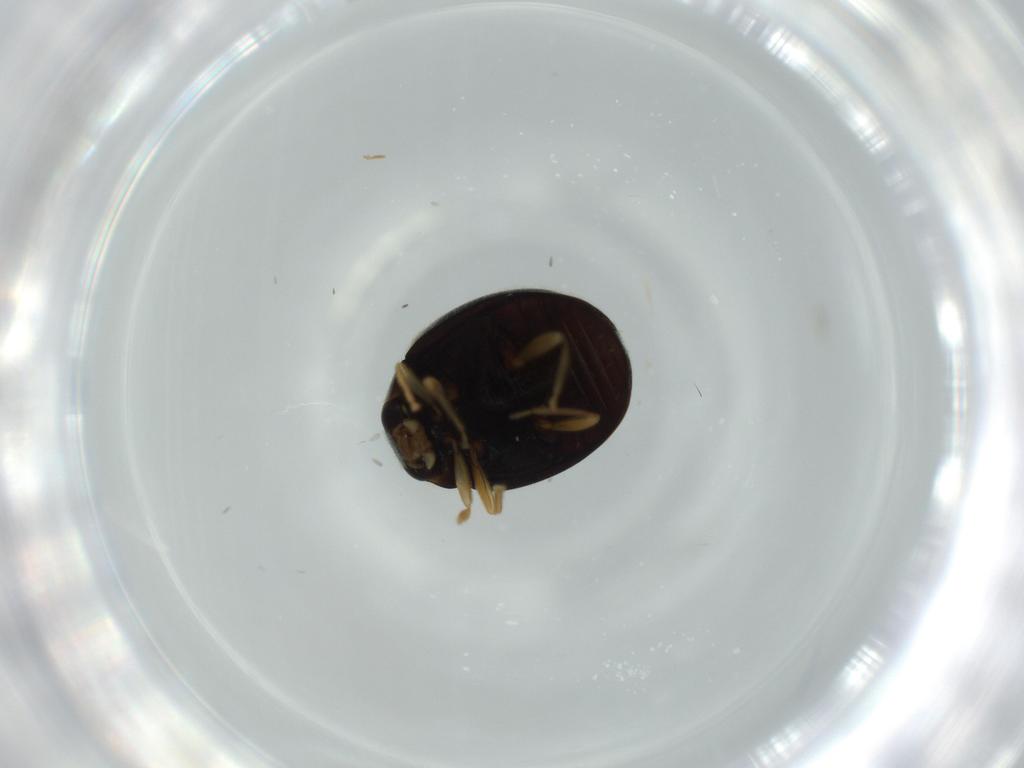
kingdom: Animalia
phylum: Arthropoda
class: Insecta
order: Coleoptera
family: Coccinellidae
